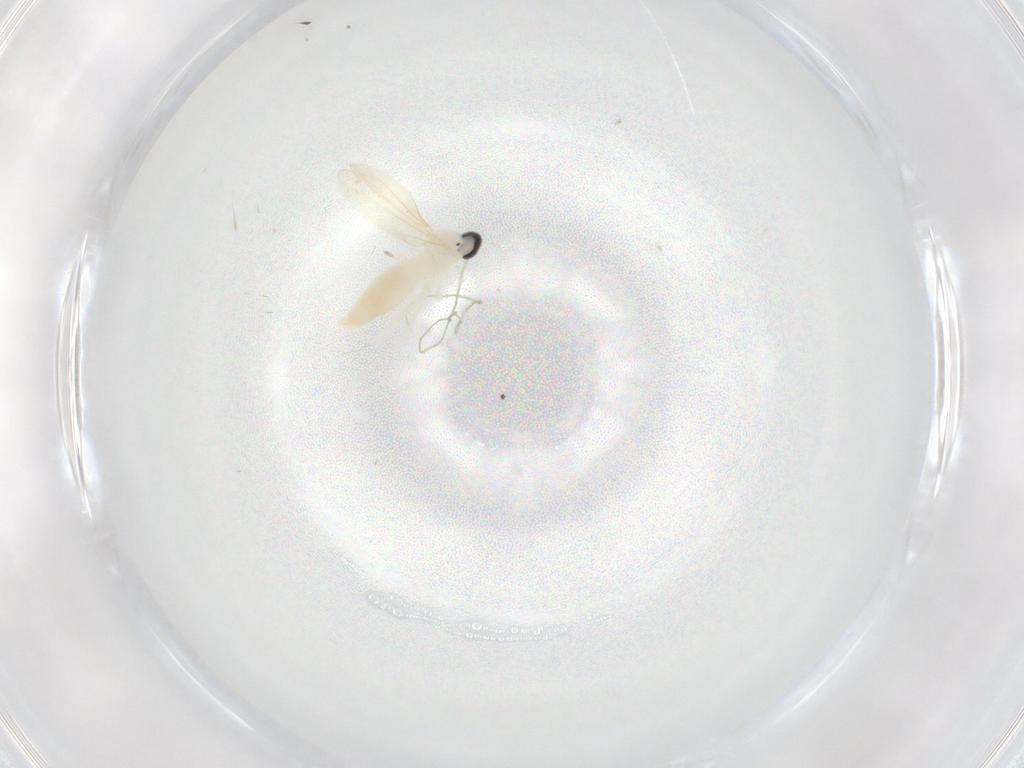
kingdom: Animalia
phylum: Arthropoda
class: Insecta
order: Diptera
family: Cecidomyiidae
